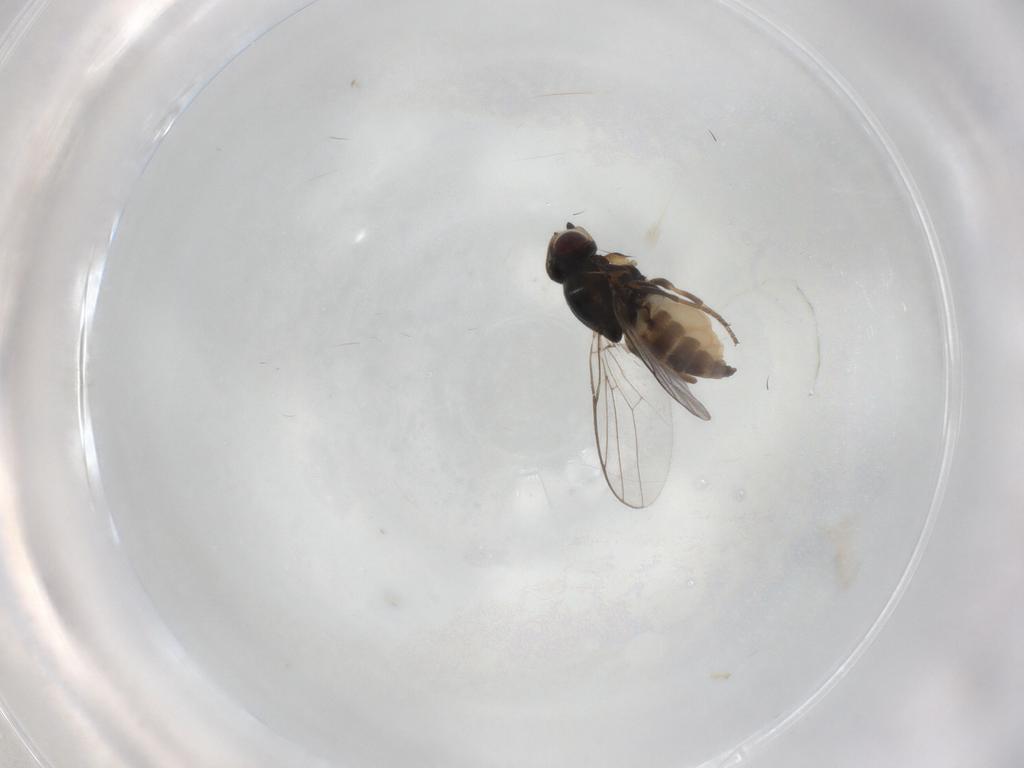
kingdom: Animalia
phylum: Arthropoda
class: Insecta
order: Diptera
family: Chloropidae
